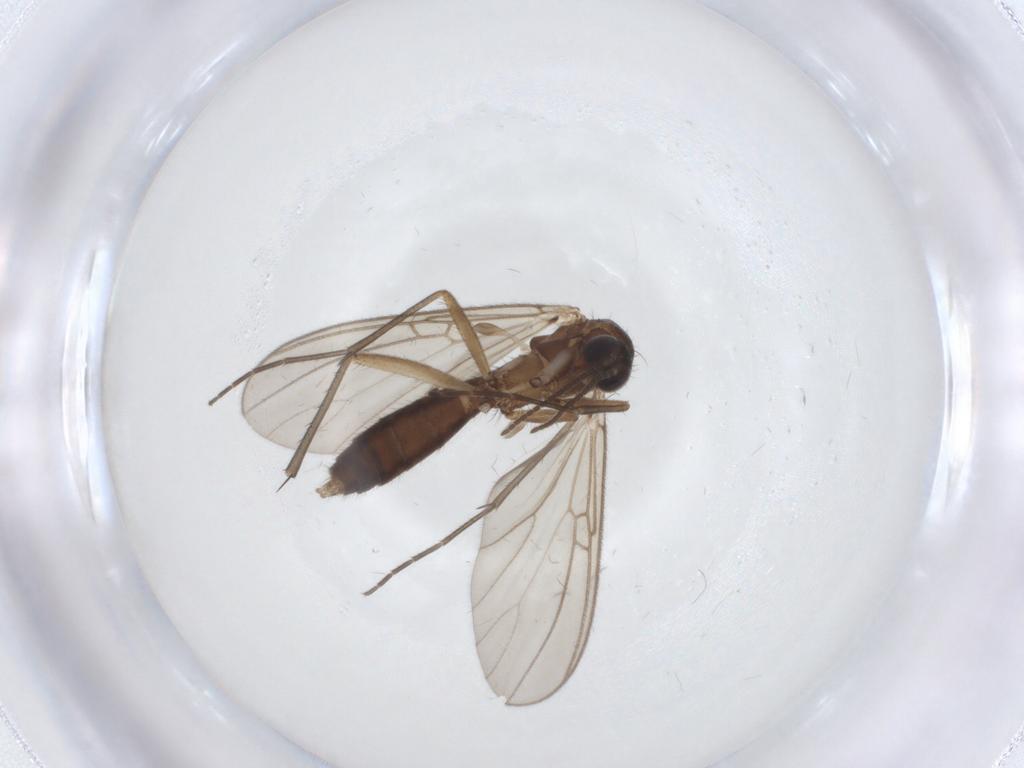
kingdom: Animalia
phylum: Arthropoda
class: Insecta
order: Diptera
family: Mycetophilidae
